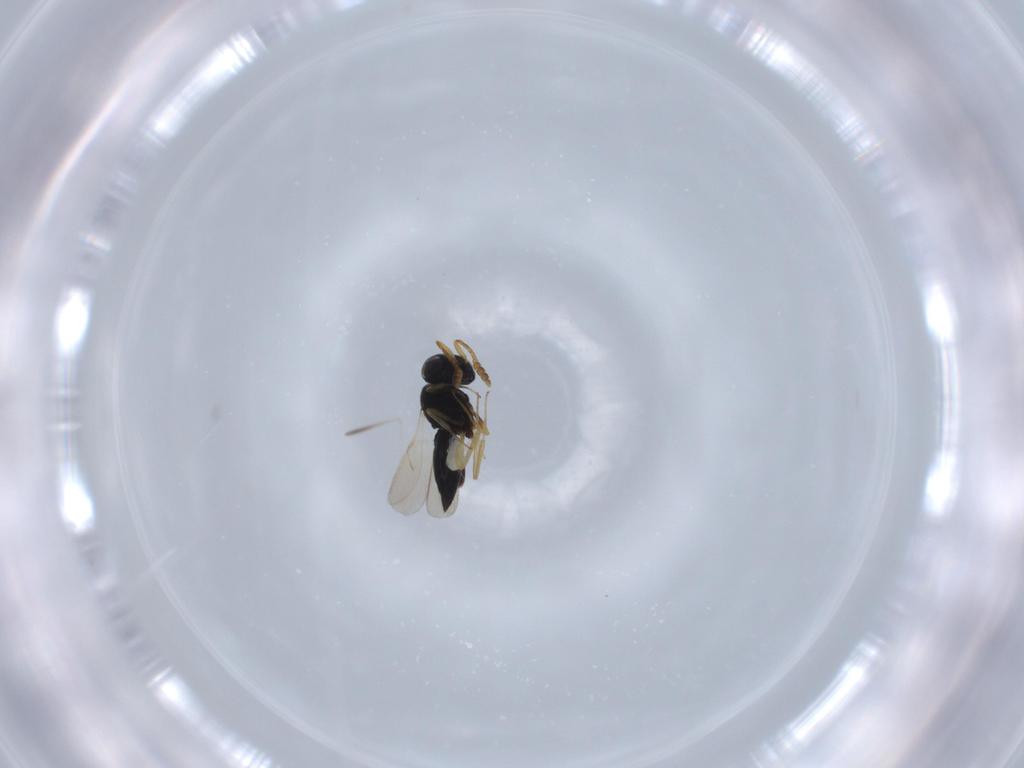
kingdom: Animalia
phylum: Arthropoda
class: Insecta
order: Hymenoptera
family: Scelionidae
